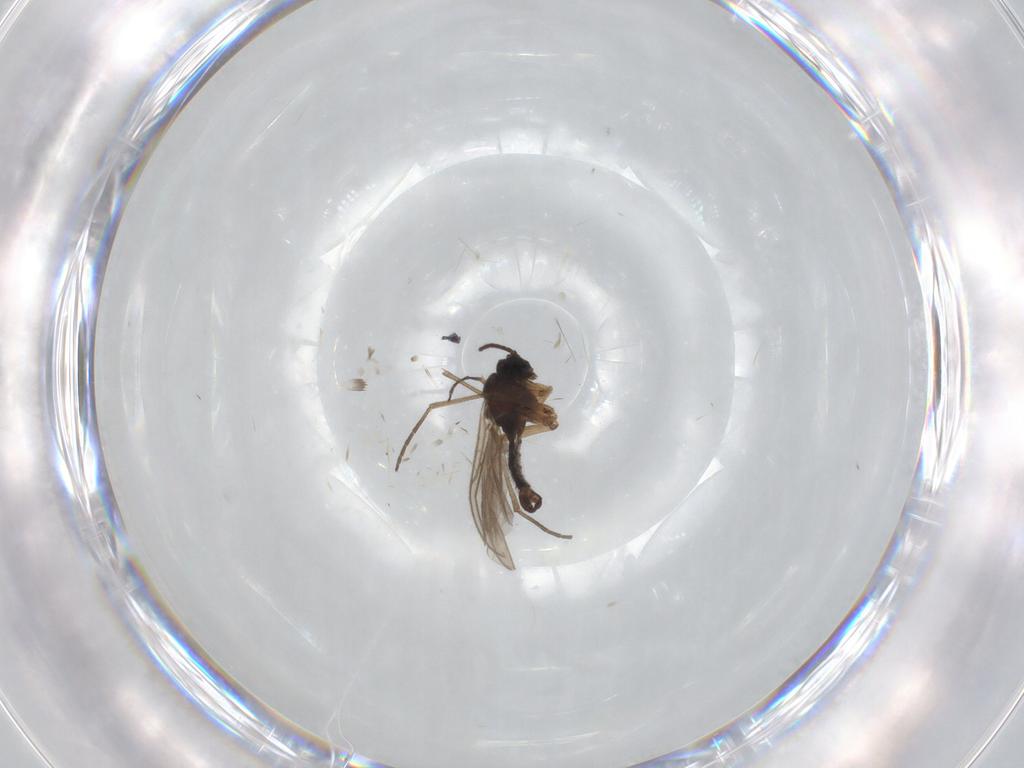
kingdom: Animalia
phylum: Arthropoda
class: Insecta
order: Diptera
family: Sciaridae
